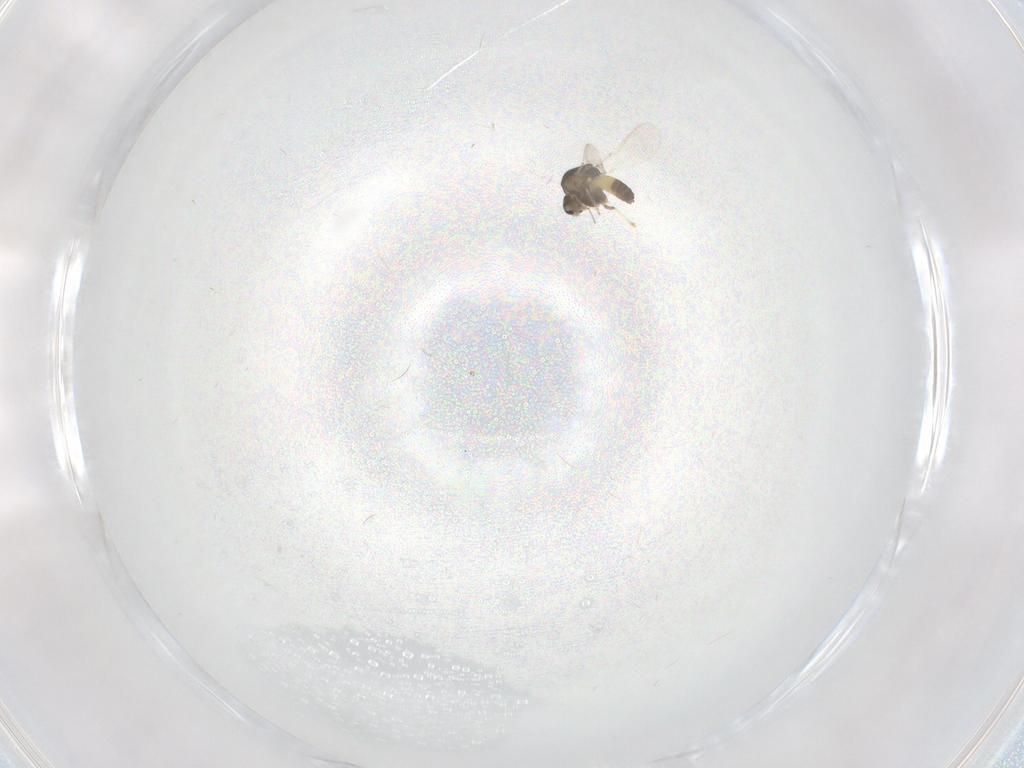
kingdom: Animalia
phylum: Arthropoda
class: Insecta
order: Diptera
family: Chironomidae
